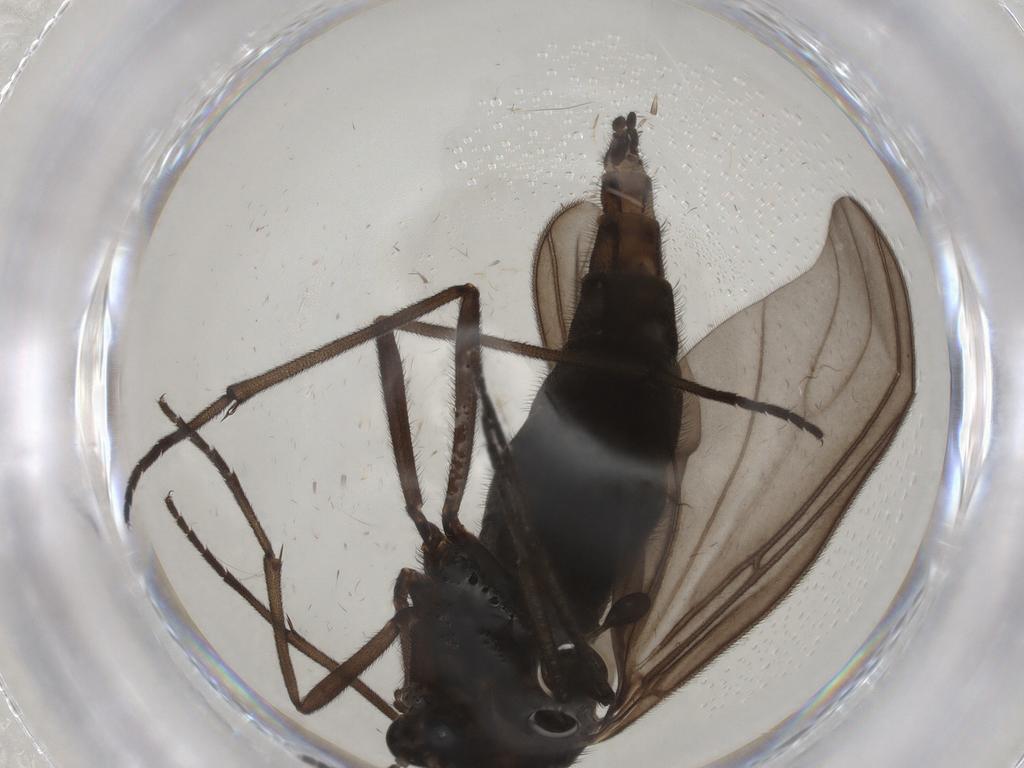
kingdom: Animalia
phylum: Arthropoda
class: Insecta
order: Diptera
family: Sciaridae
